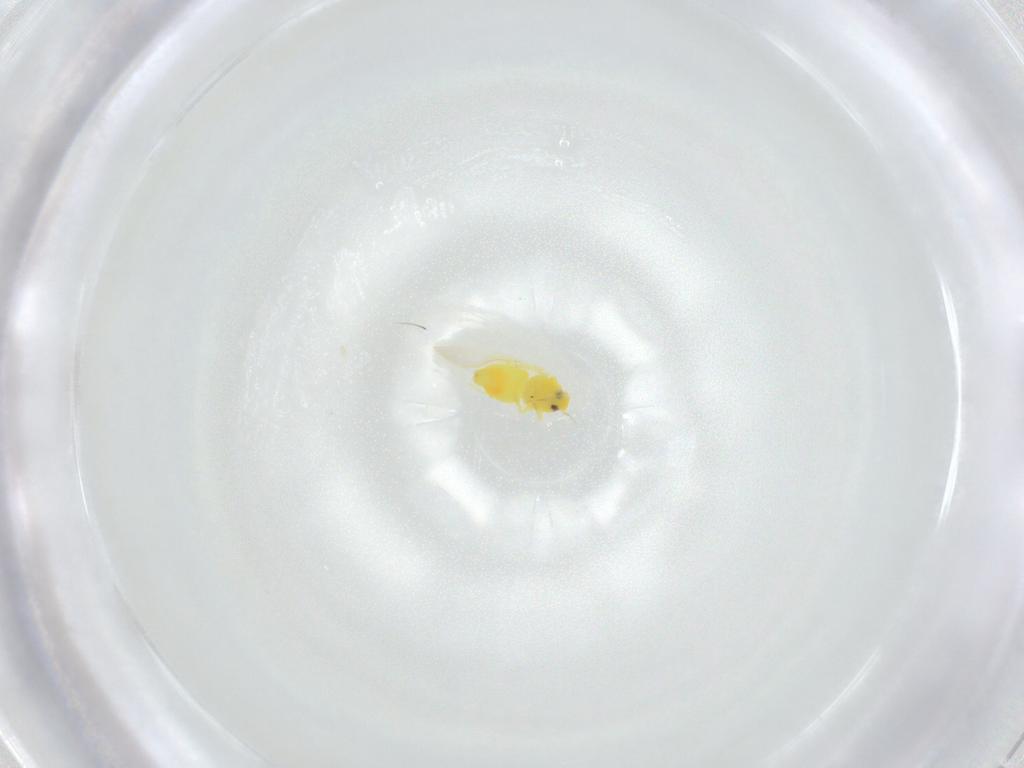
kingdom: Animalia
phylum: Arthropoda
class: Insecta
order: Hemiptera
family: Aleyrodidae
